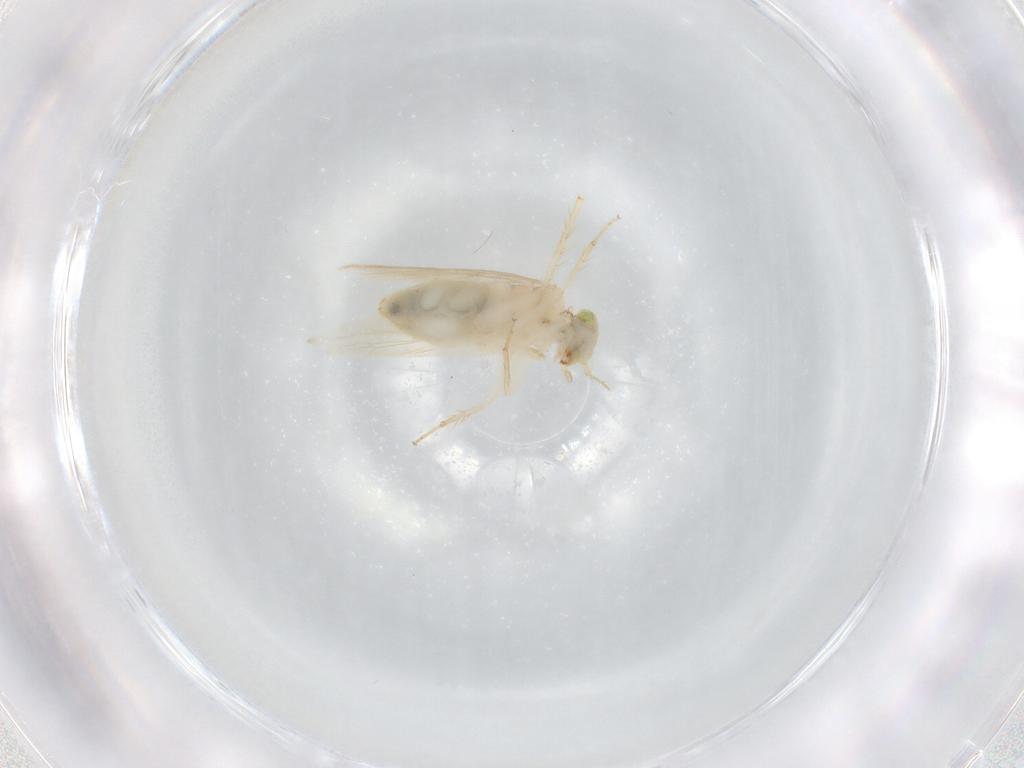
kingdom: Animalia
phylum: Arthropoda
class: Insecta
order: Psocodea
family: Lepidopsocidae
